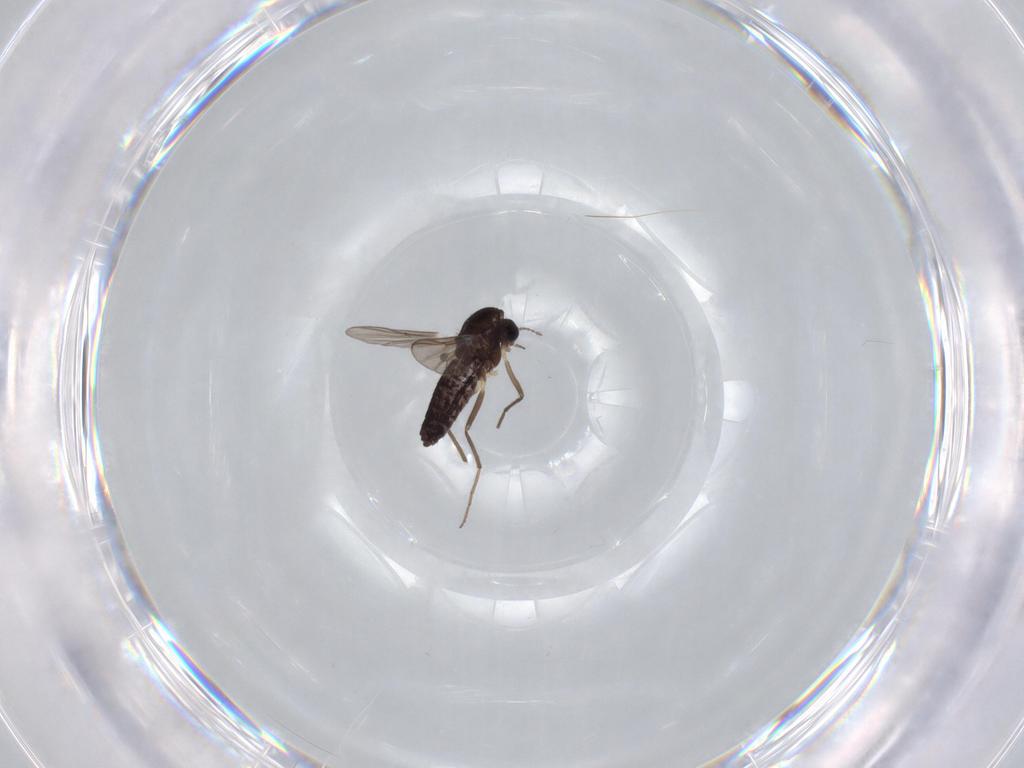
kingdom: Animalia
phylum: Arthropoda
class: Insecta
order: Diptera
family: Chironomidae
